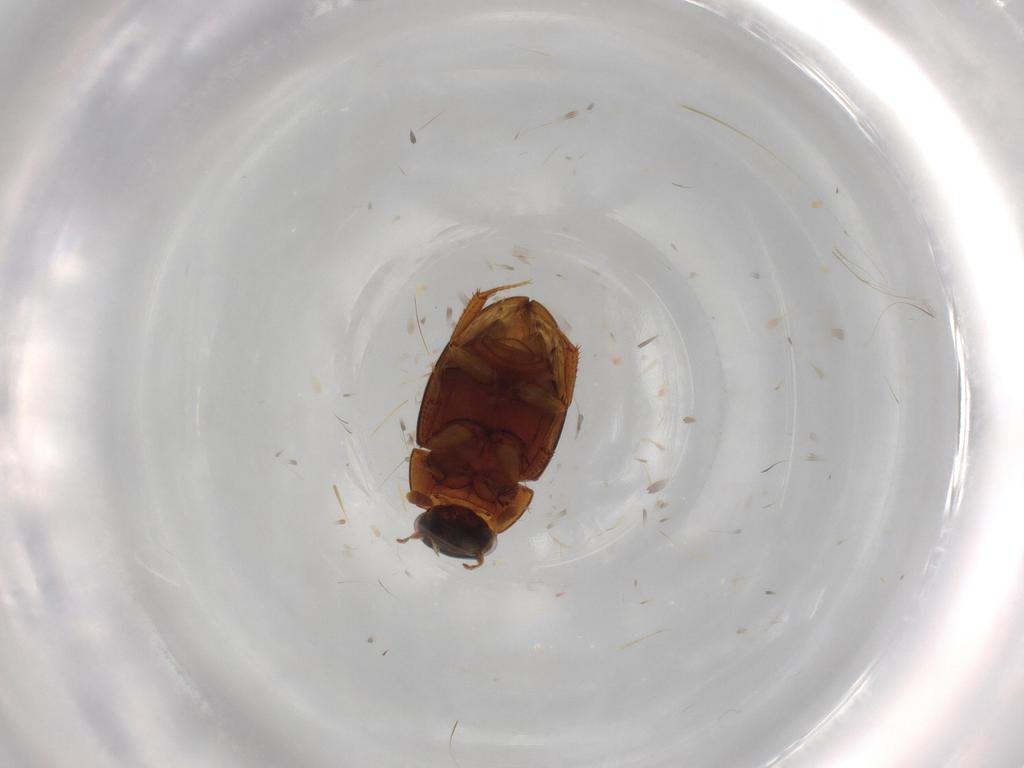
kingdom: Animalia
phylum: Arthropoda
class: Insecta
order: Coleoptera
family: Hydrophilidae
